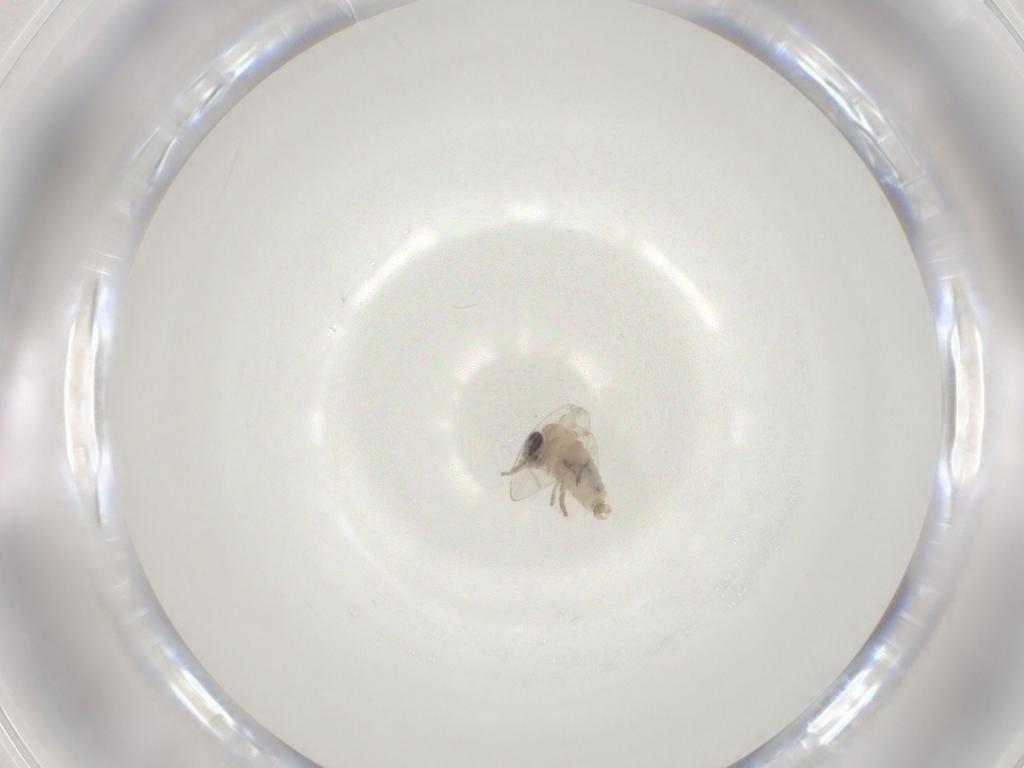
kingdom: Animalia
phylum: Arthropoda
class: Insecta
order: Diptera
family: Psychodidae
